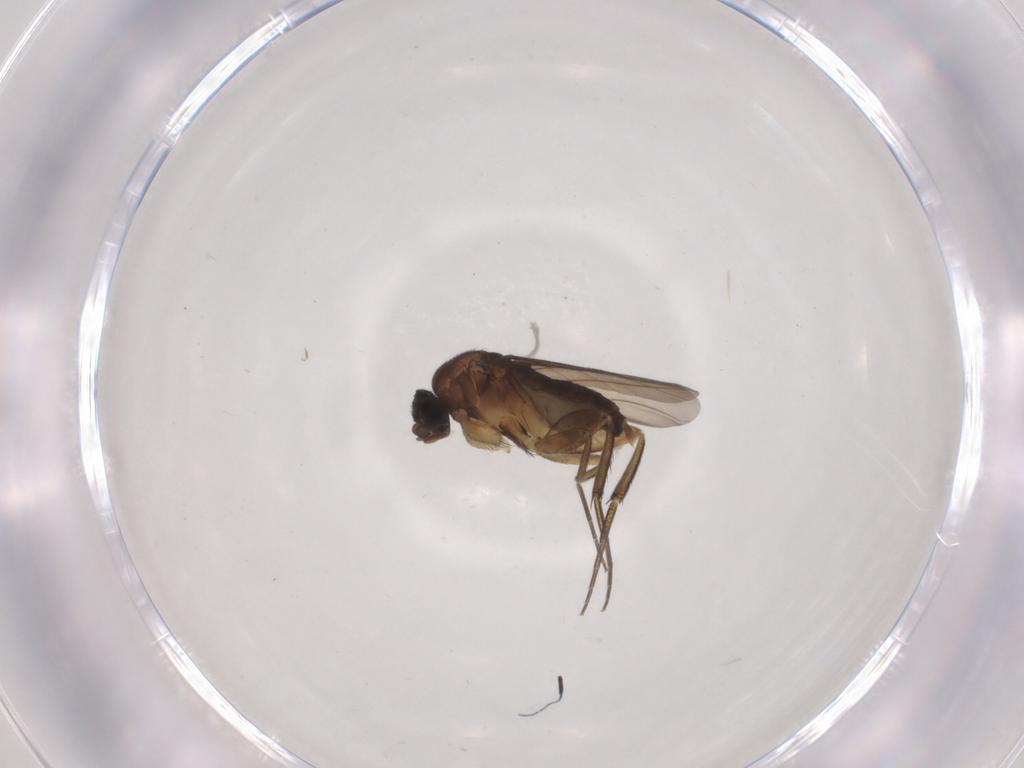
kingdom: Animalia
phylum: Arthropoda
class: Insecta
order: Diptera
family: Phoridae
